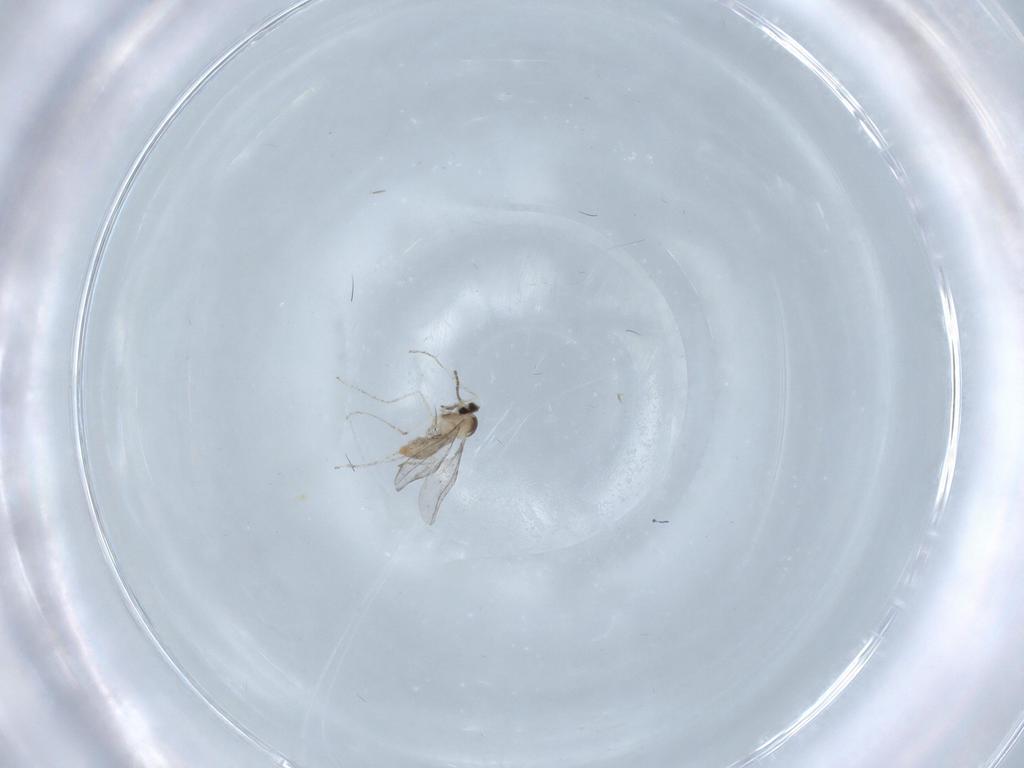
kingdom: Animalia
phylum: Arthropoda
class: Insecta
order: Diptera
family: Cecidomyiidae
